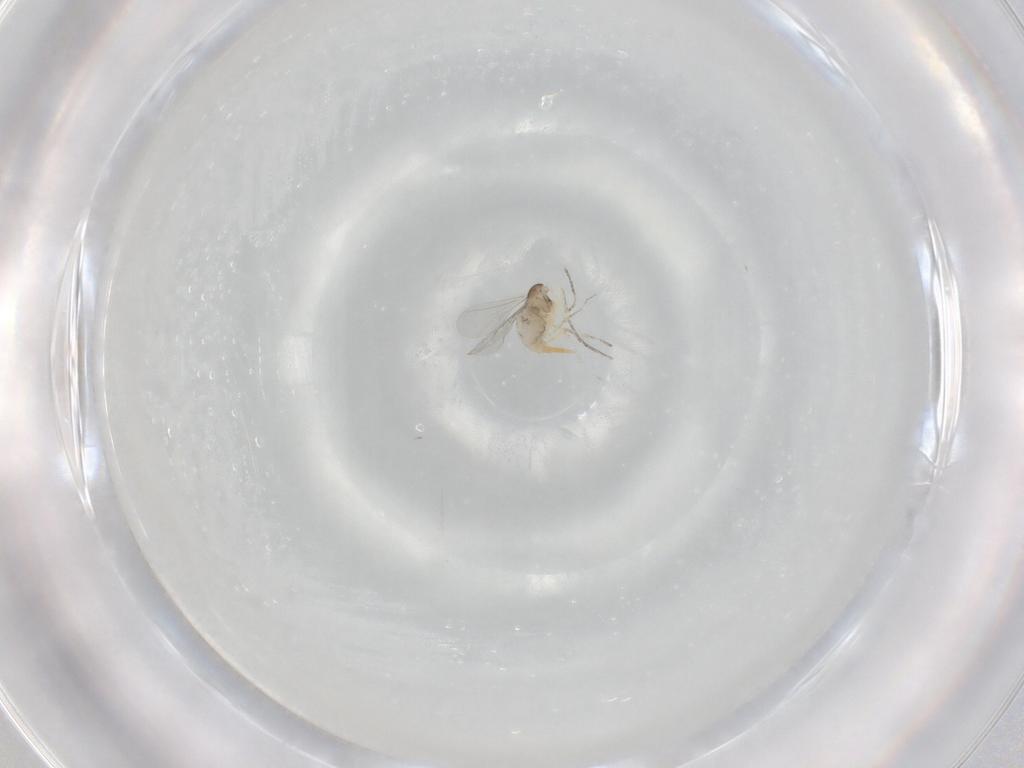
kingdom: Animalia
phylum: Arthropoda
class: Insecta
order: Diptera
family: Cecidomyiidae
